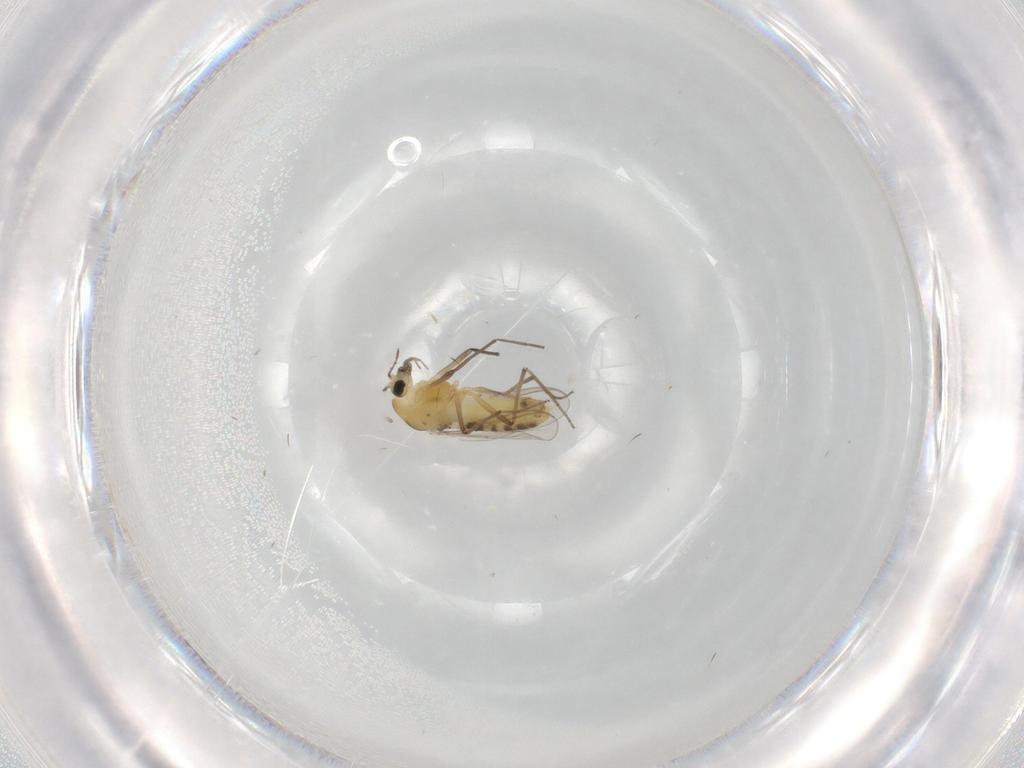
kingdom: Animalia
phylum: Arthropoda
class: Insecta
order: Diptera
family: Chironomidae
